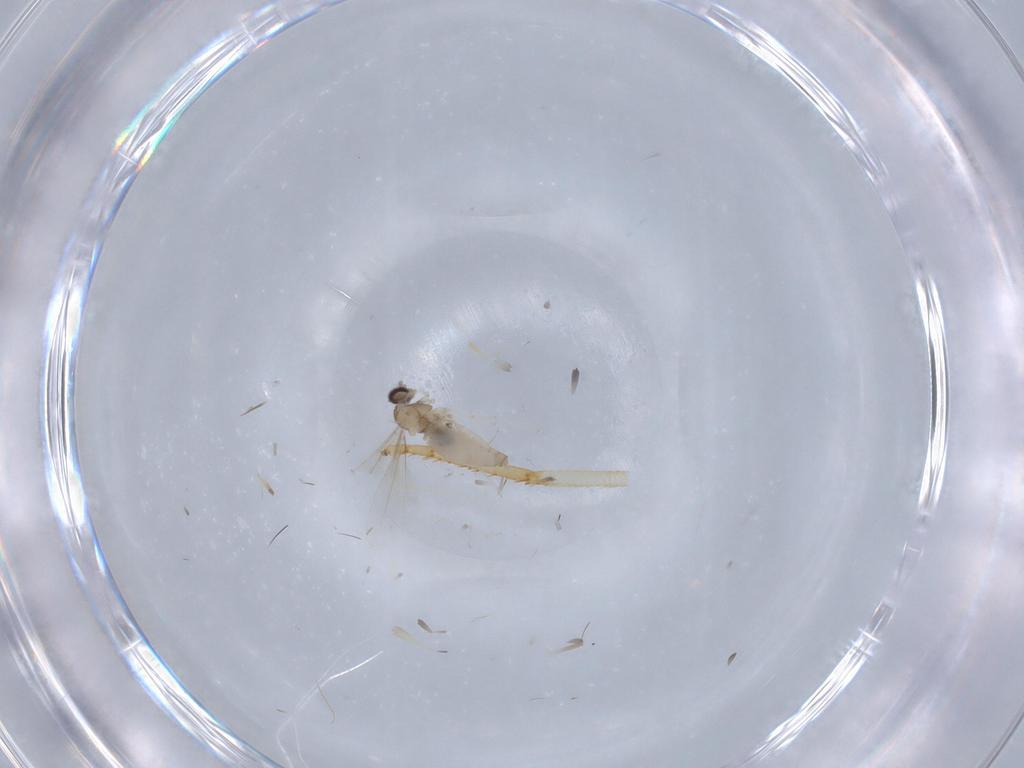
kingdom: Animalia
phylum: Arthropoda
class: Insecta
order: Diptera
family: Cecidomyiidae
